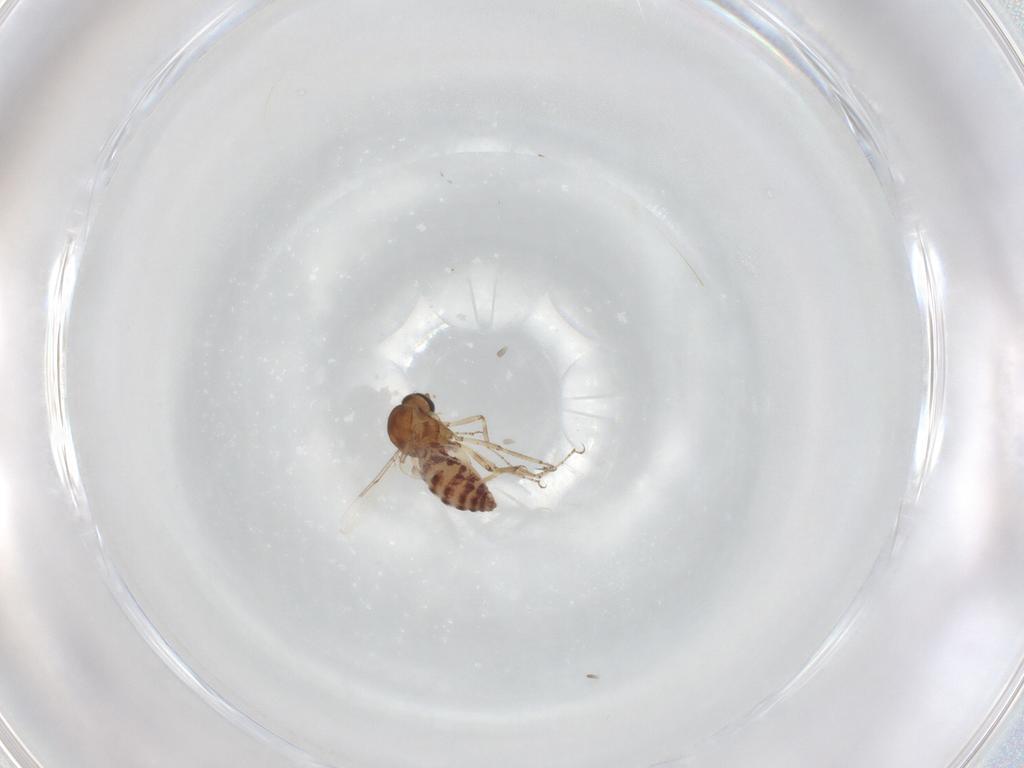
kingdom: Animalia
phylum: Arthropoda
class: Insecta
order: Diptera
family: Ceratopogonidae
